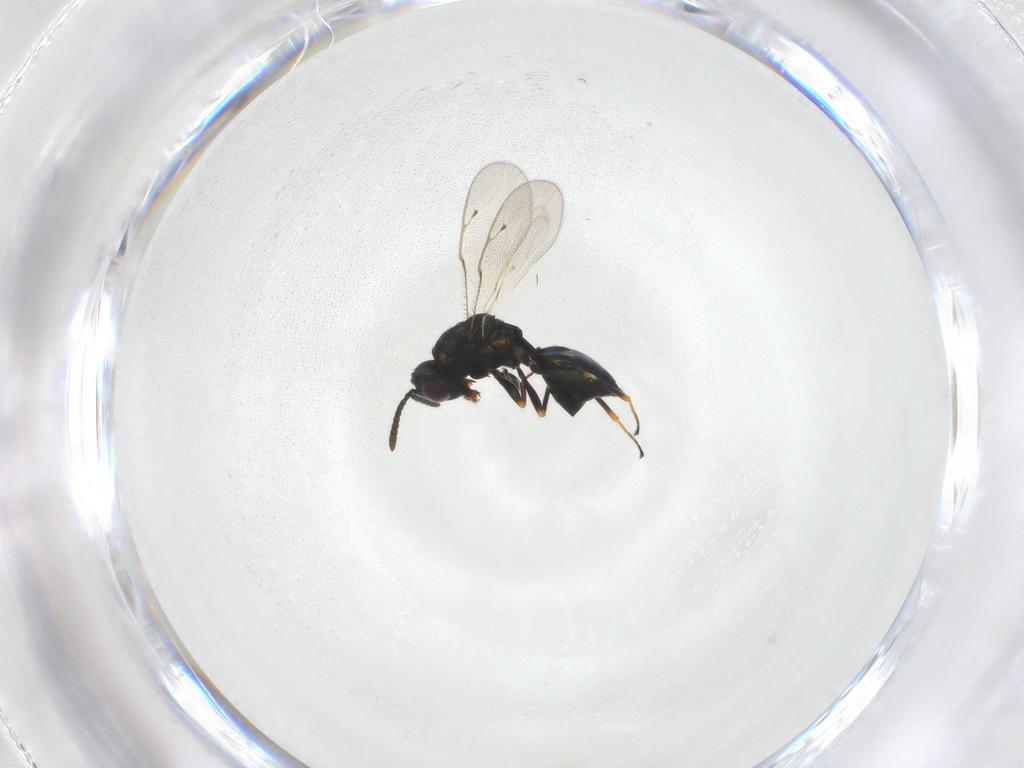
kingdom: Animalia
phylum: Arthropoda
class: Insecta
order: Hymenoptera
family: Pteromalidae
